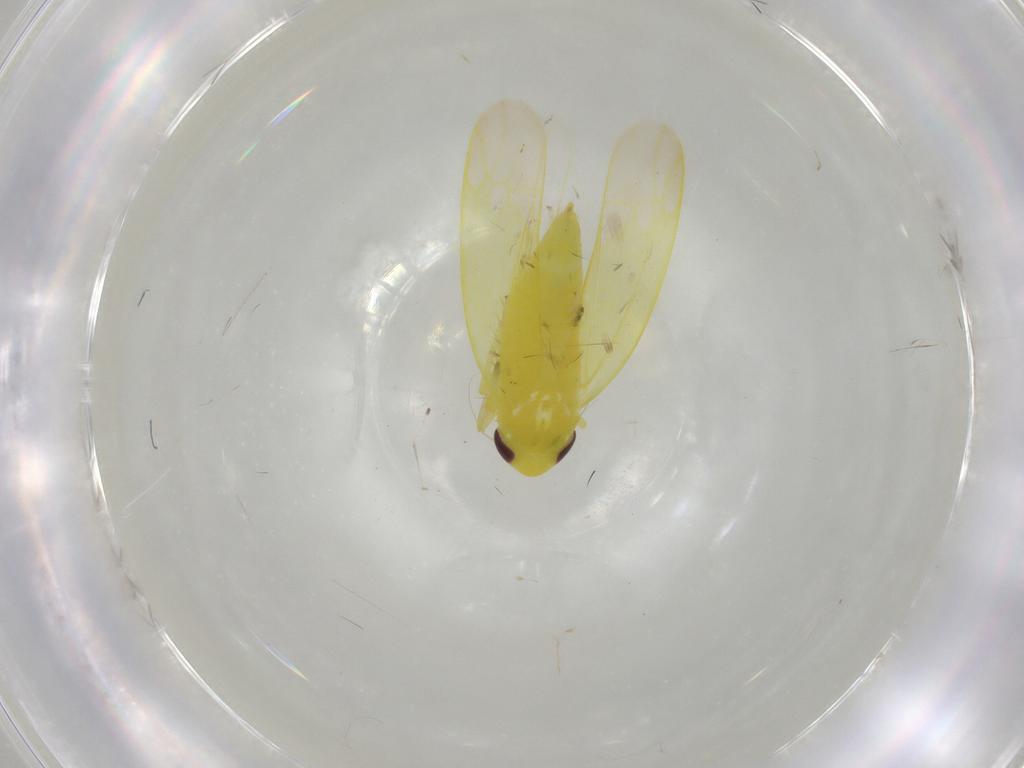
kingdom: Animalia
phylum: Arthropoda
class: Insecta
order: Hemiptera
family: Cicadellidae
